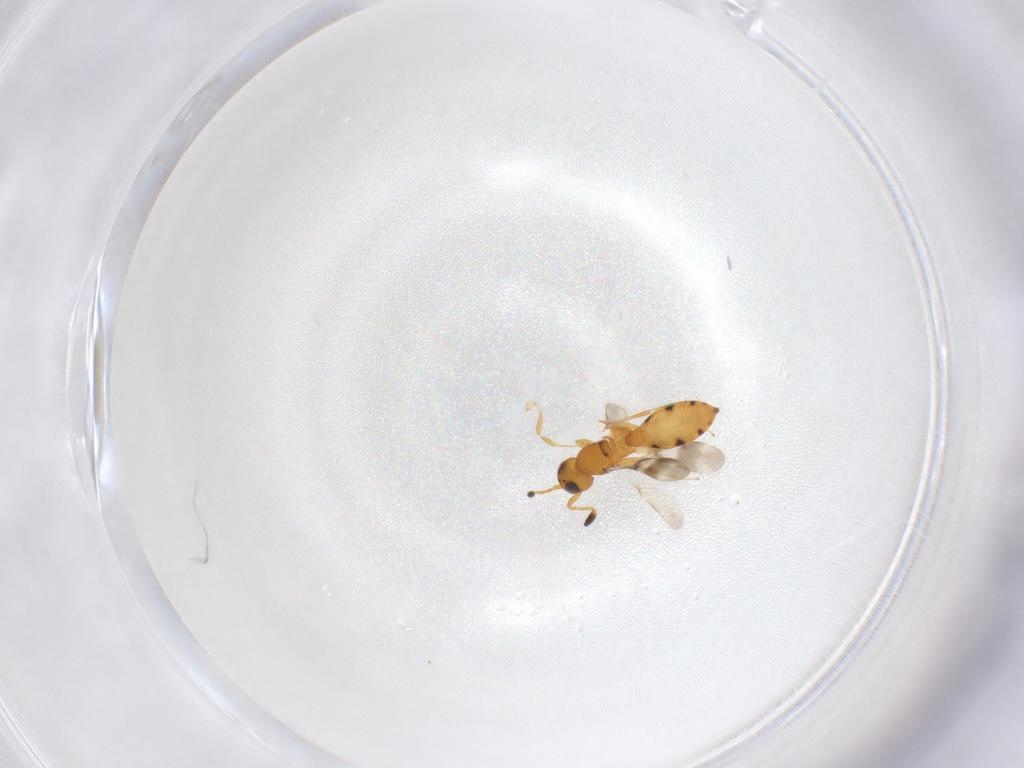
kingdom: Animalia
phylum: Arthropoda
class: Insecta
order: Hymenoptera
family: Scelionidae
